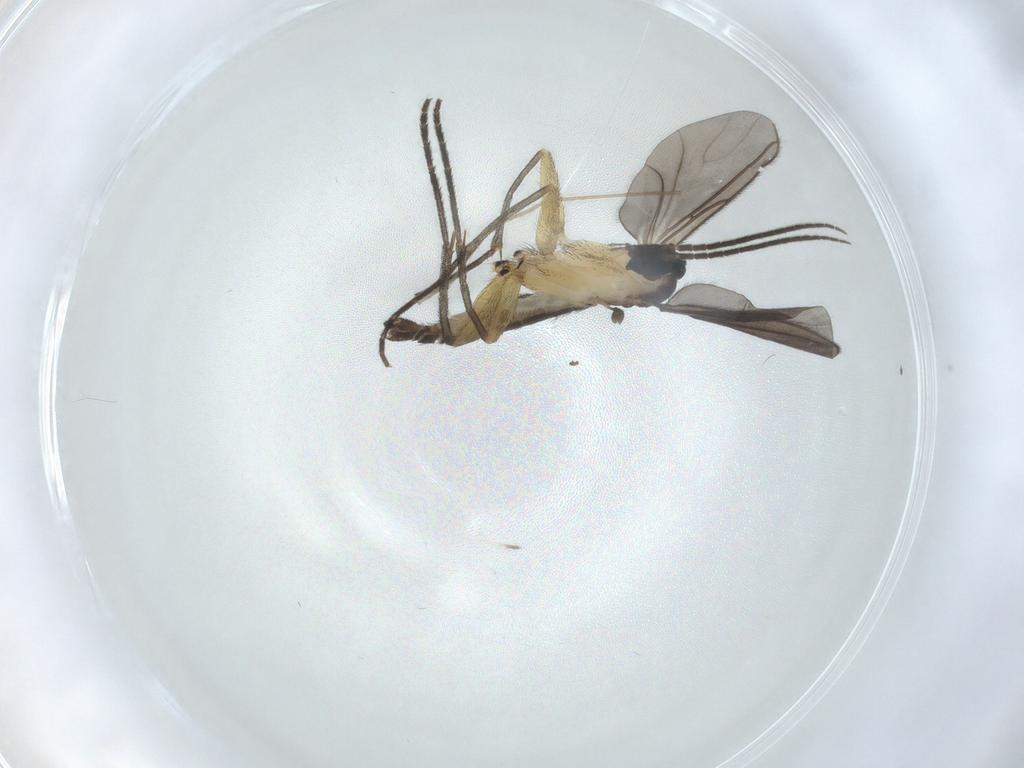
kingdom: Animalia
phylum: Arthropoda
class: Insecta
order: Diptera
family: Sciaridae
